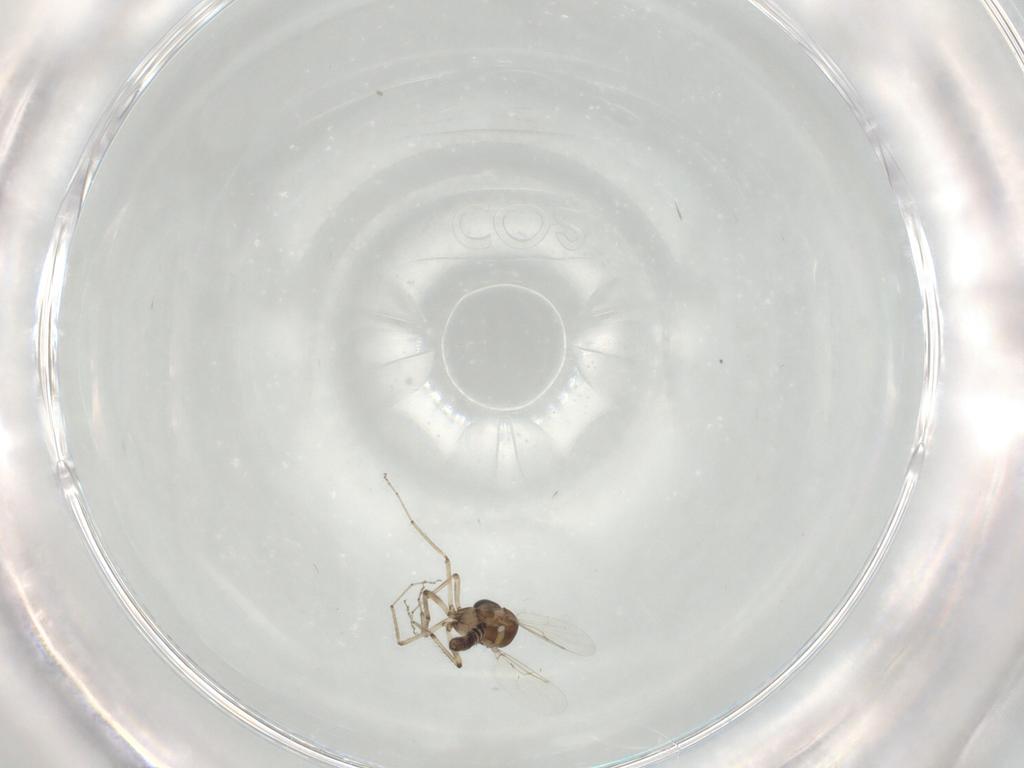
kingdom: Animalia
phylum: Arthropoda
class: Insecta
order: Diptera
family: Ceratopogonidae
